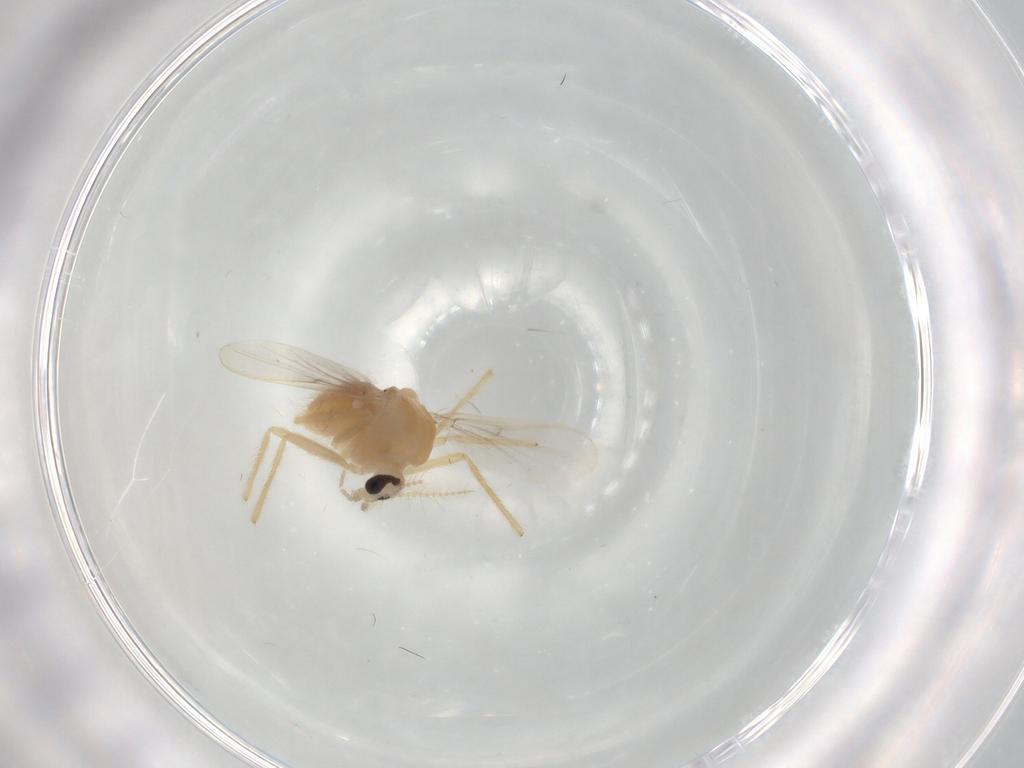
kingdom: Animalia
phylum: Arthropoda
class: Insecta
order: Diptera
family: Chironomidae
